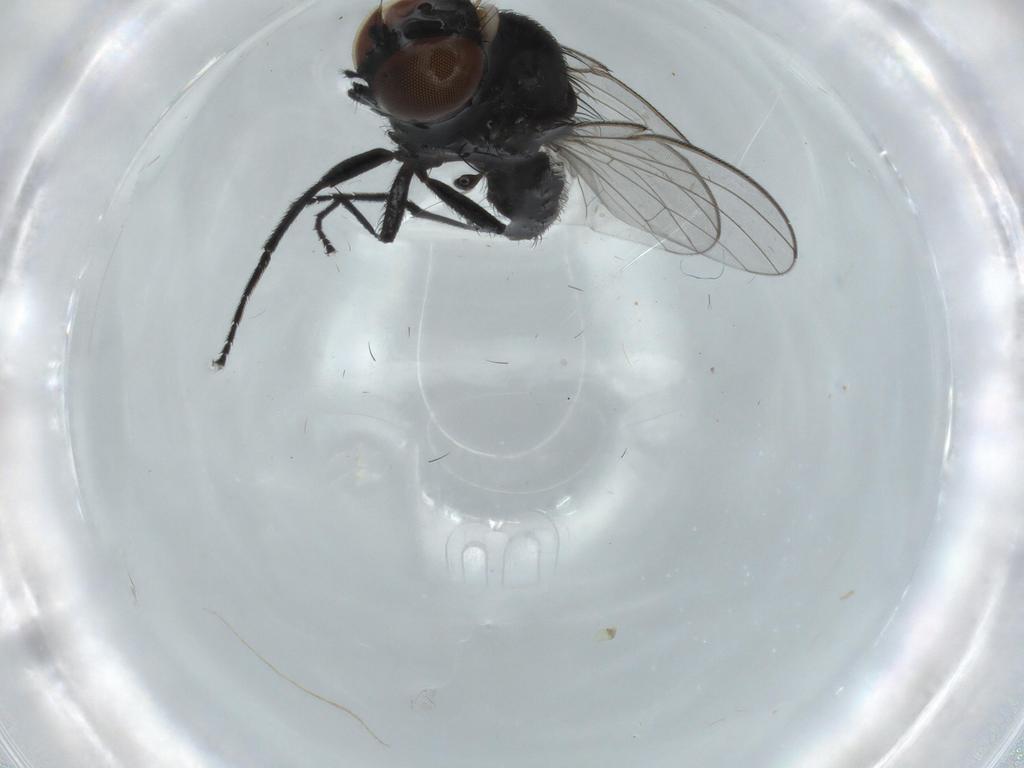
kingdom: Animalia
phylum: Arthropoda
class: Insecta
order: Diptera
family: Milichiidae
